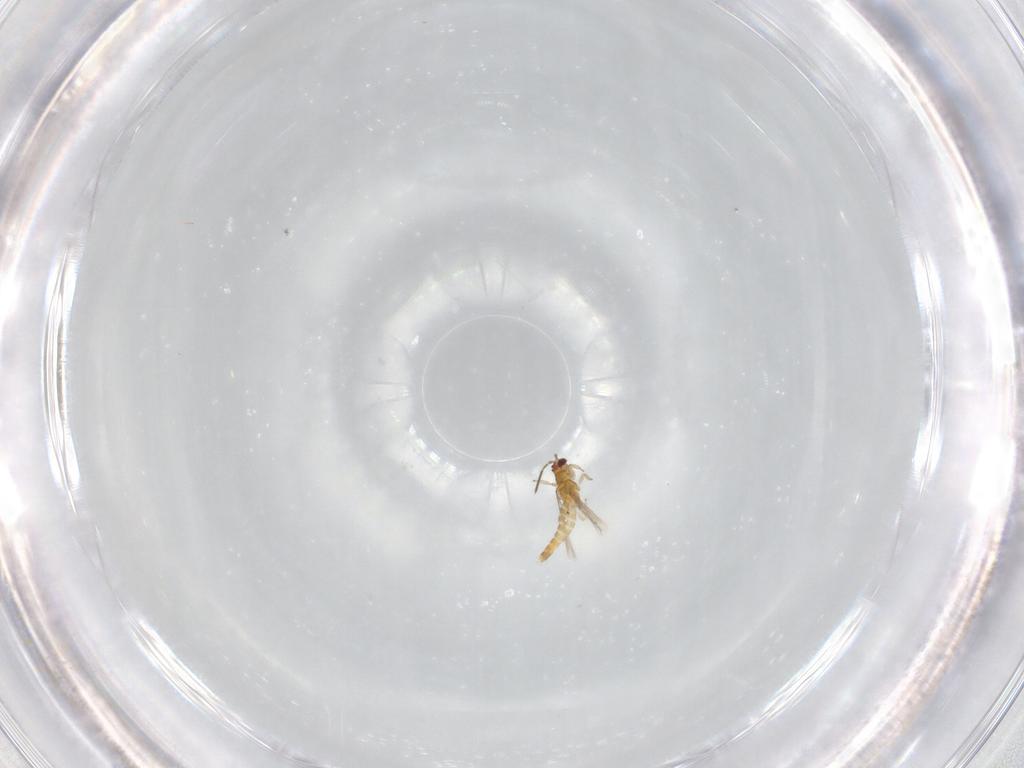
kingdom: Animalia
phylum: Arthropoda
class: Insecta
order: Thysanoptera
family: Thripidae
